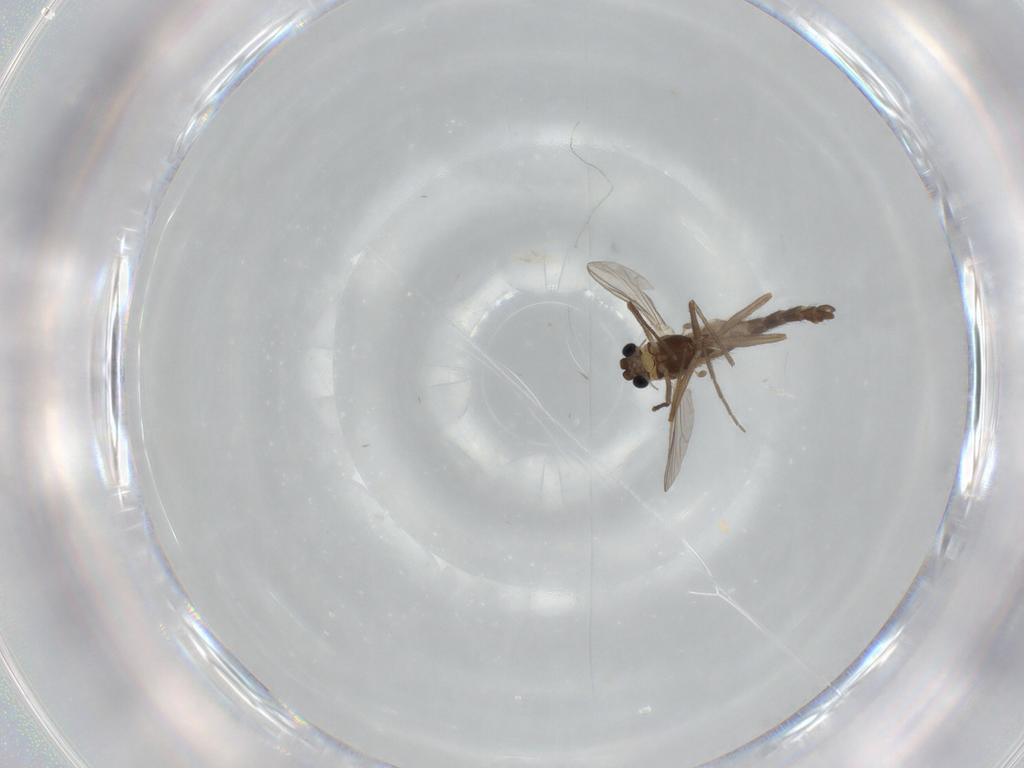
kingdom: Animalia
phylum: Arthropoda
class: Insecta
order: Diptera
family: Chironomidae
